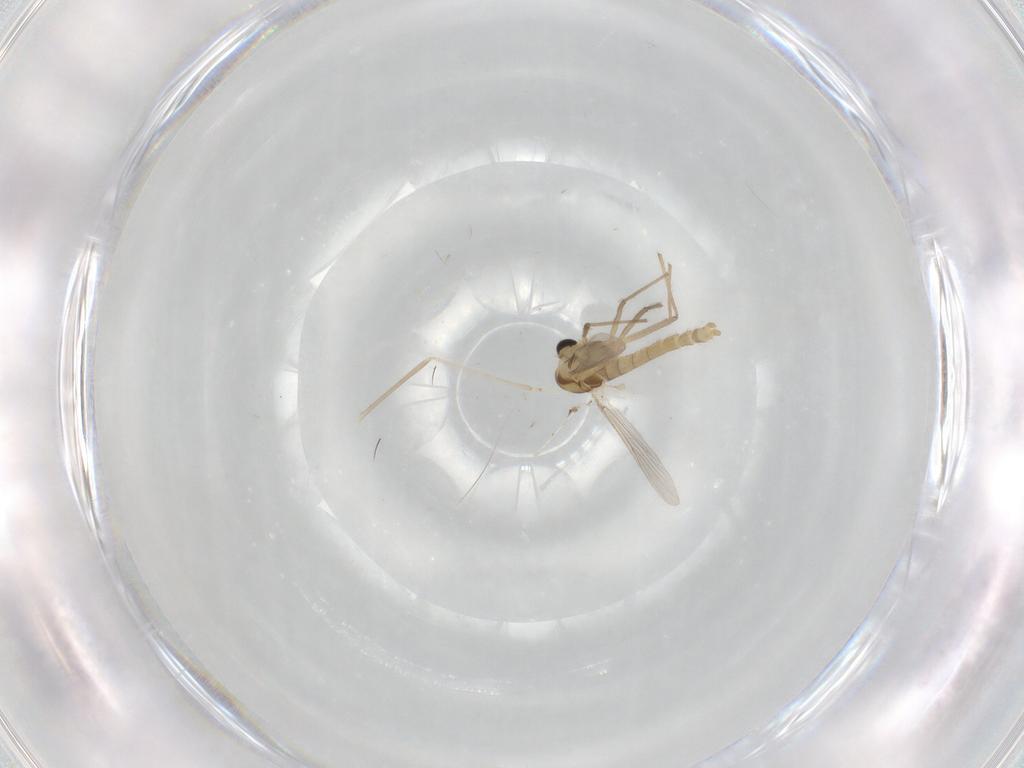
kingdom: Animalia
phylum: Arthropoda
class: Insecta
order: Diptera
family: Cecidomyiidae
